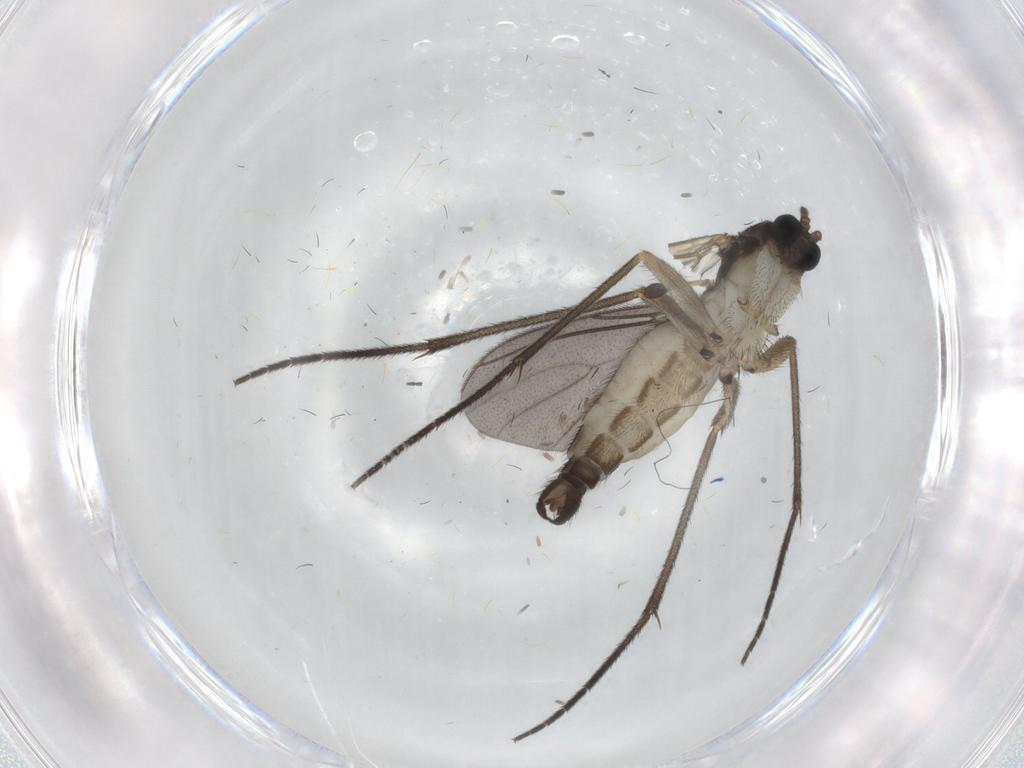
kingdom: Animalia
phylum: Arthropoda
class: Insecta
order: Diptera
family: Sciaridae
